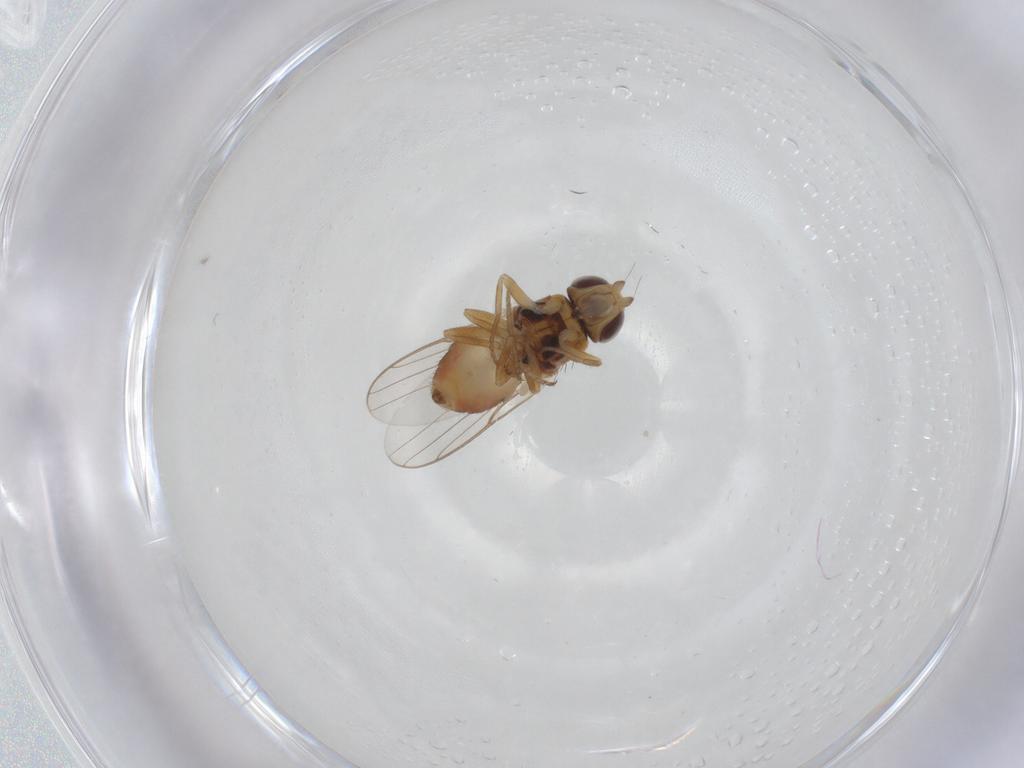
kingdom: Animalia
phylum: Arthropoda
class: Insecta
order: Diptera
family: Chloropidae
